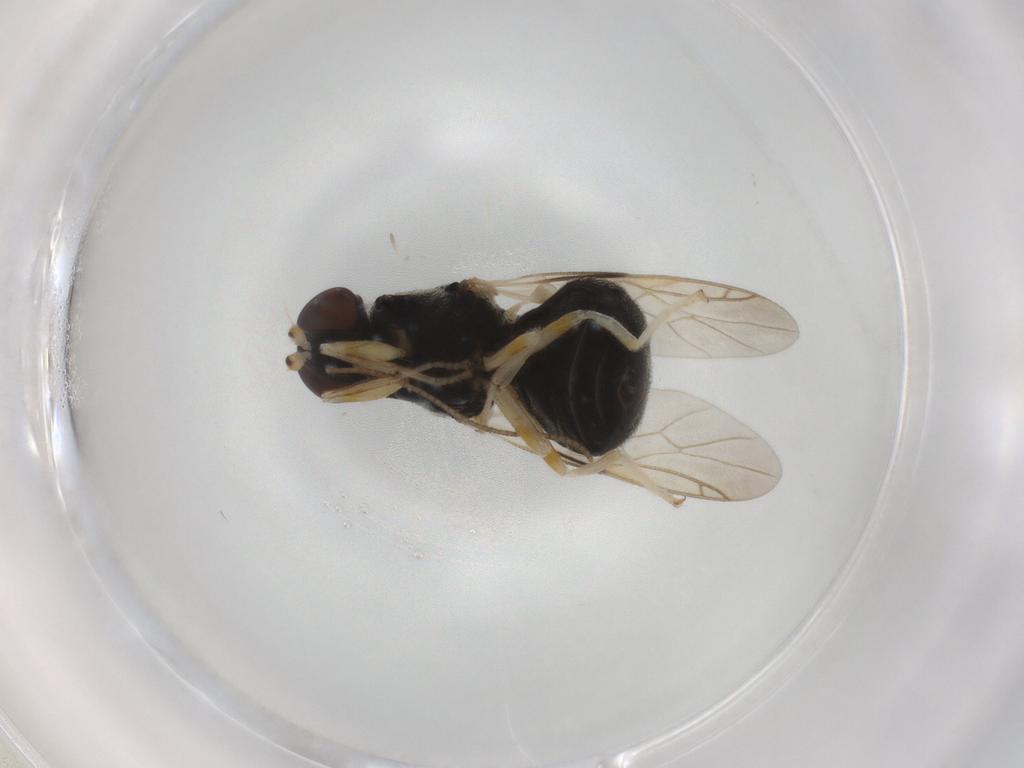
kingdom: Animalia
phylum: Arthropoda
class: Insecta
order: Diptera
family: Stratiomyidae
